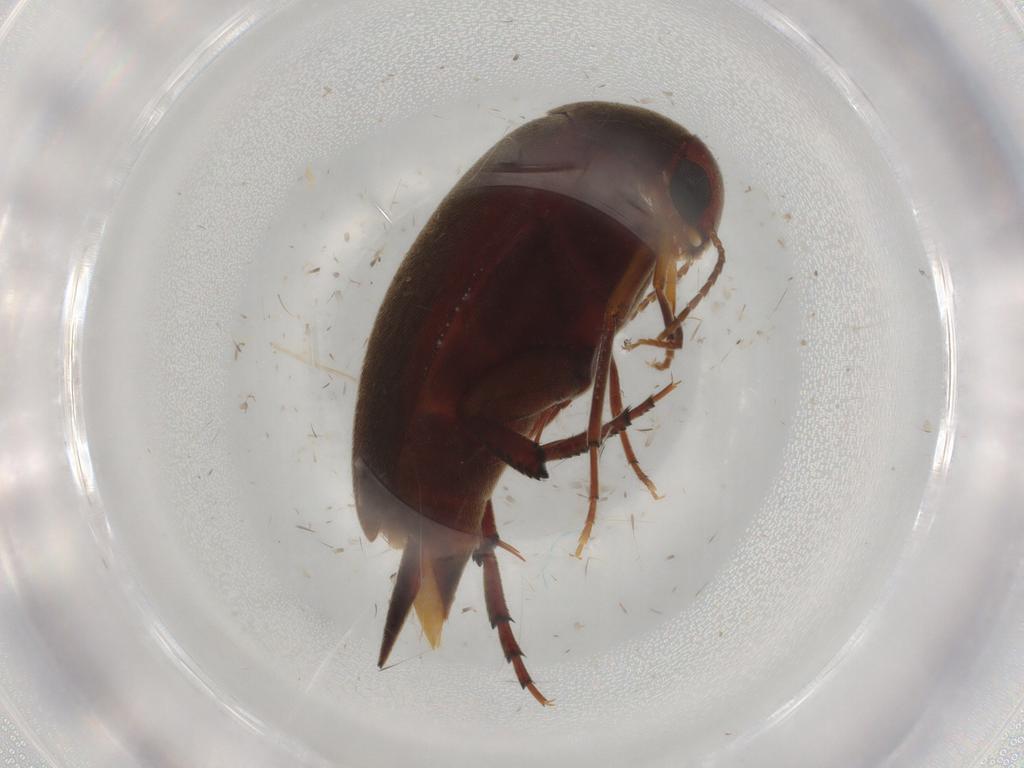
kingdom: Animalia
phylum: Arthropoda
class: Insecta
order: Coleoptera
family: Mordellidae
